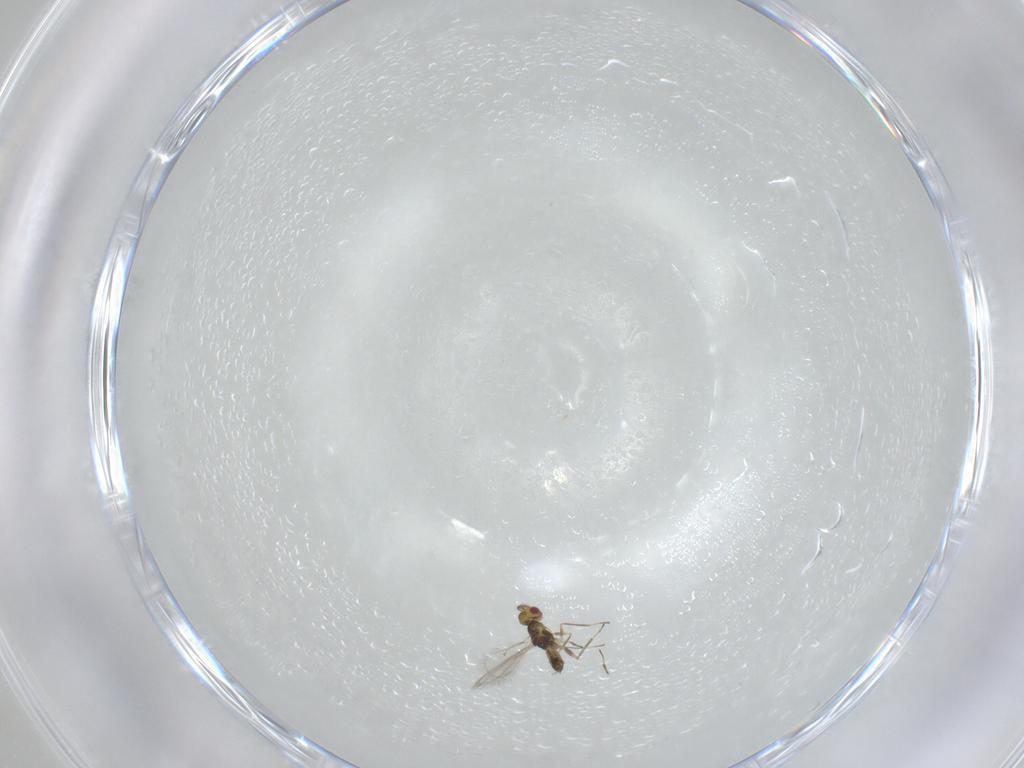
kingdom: Animalia
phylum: Arthropoda
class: Insecta
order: Hymenoptera
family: Eulophidae
